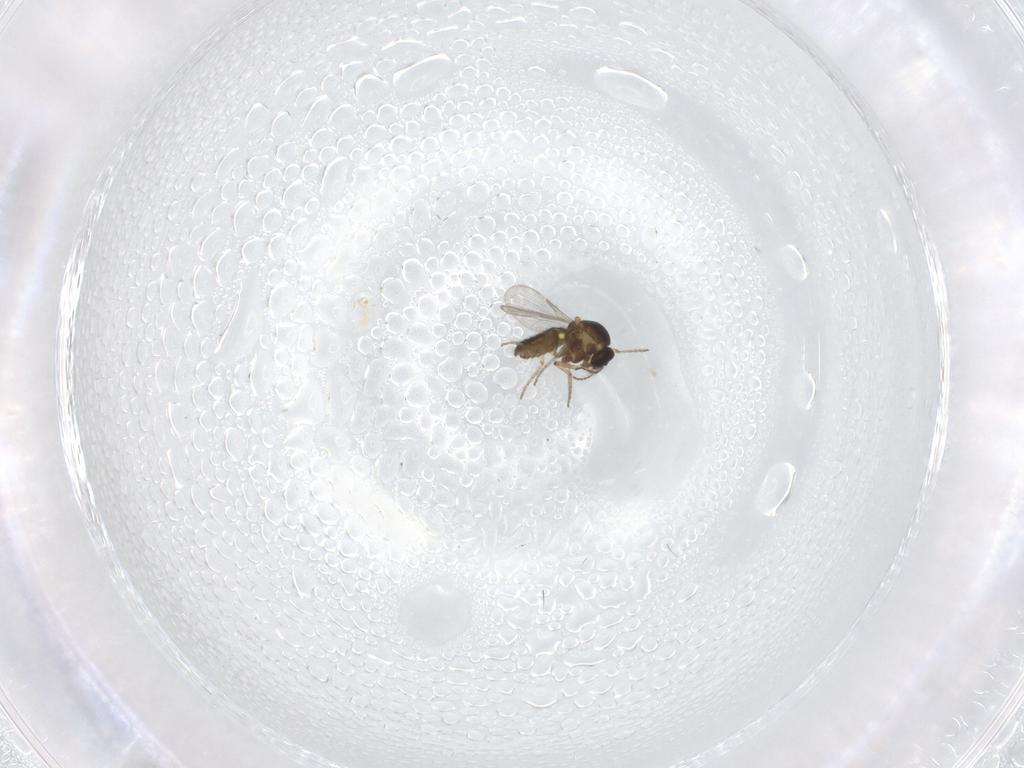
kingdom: Animalia
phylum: Arthropoda
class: Insecta
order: Diptera
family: Ceratopogonidae
